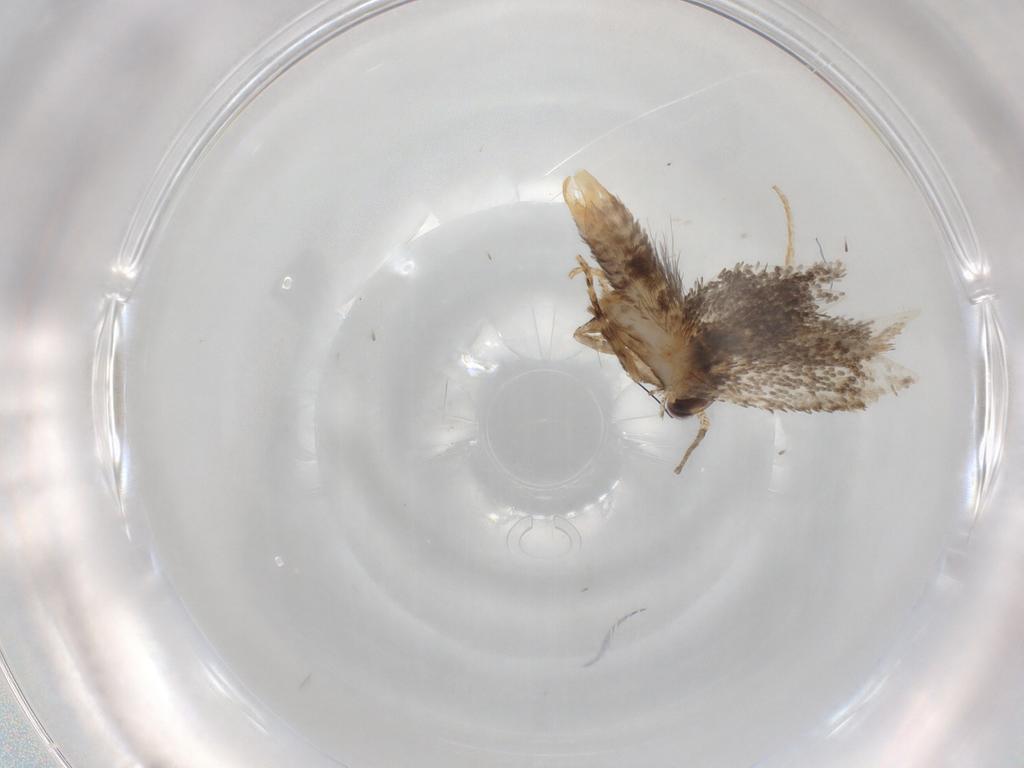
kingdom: Animalia
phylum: Arthropoda
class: Insecta
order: Lepidoptera
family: Tineidae
